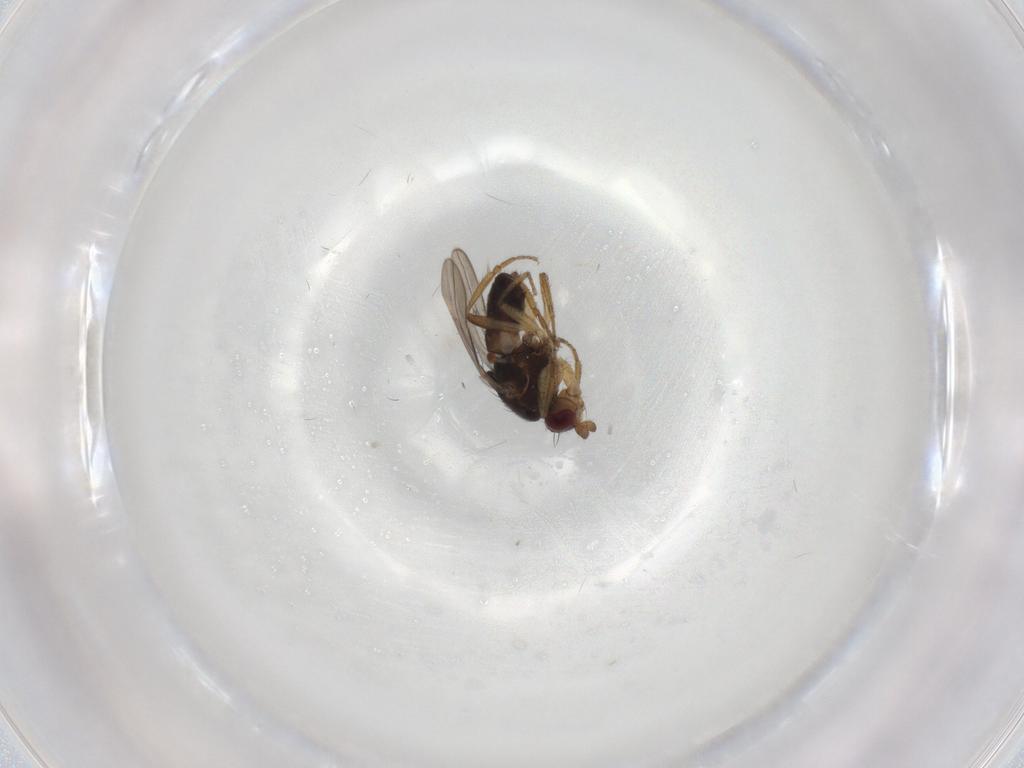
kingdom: Animalia
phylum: Arthropoda
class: Insecta
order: Diptera
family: Sphaeroceridae
